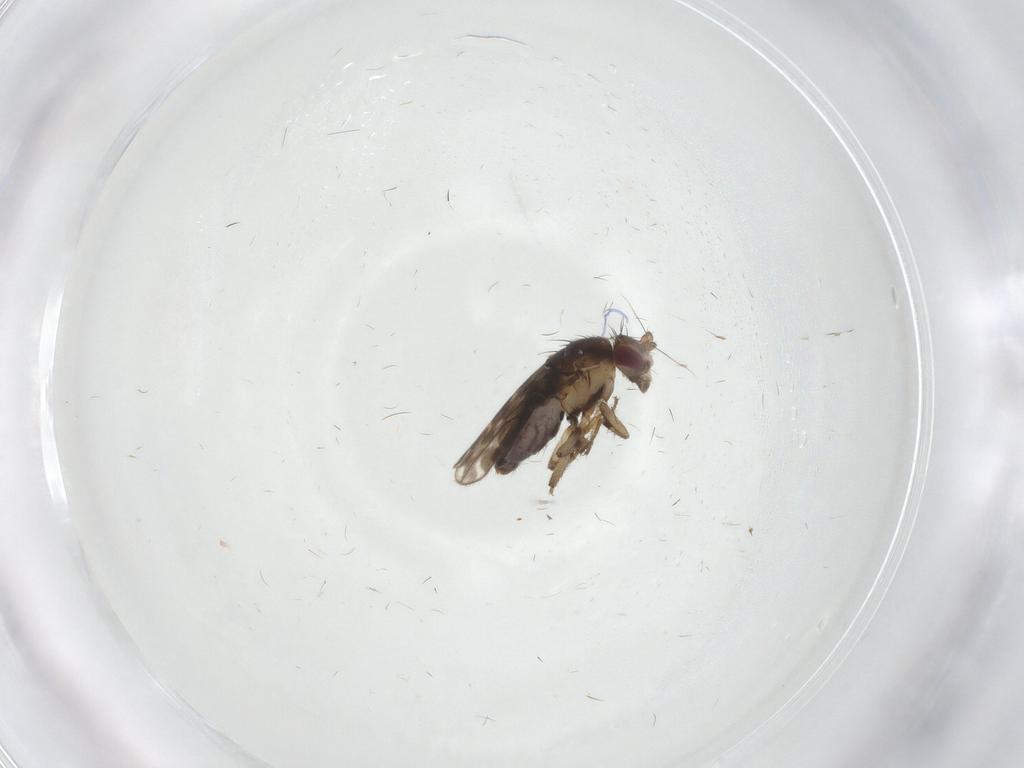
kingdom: Animalia
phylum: Arthropoda
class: Insecta
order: Diptera
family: Sphaeroceridae
